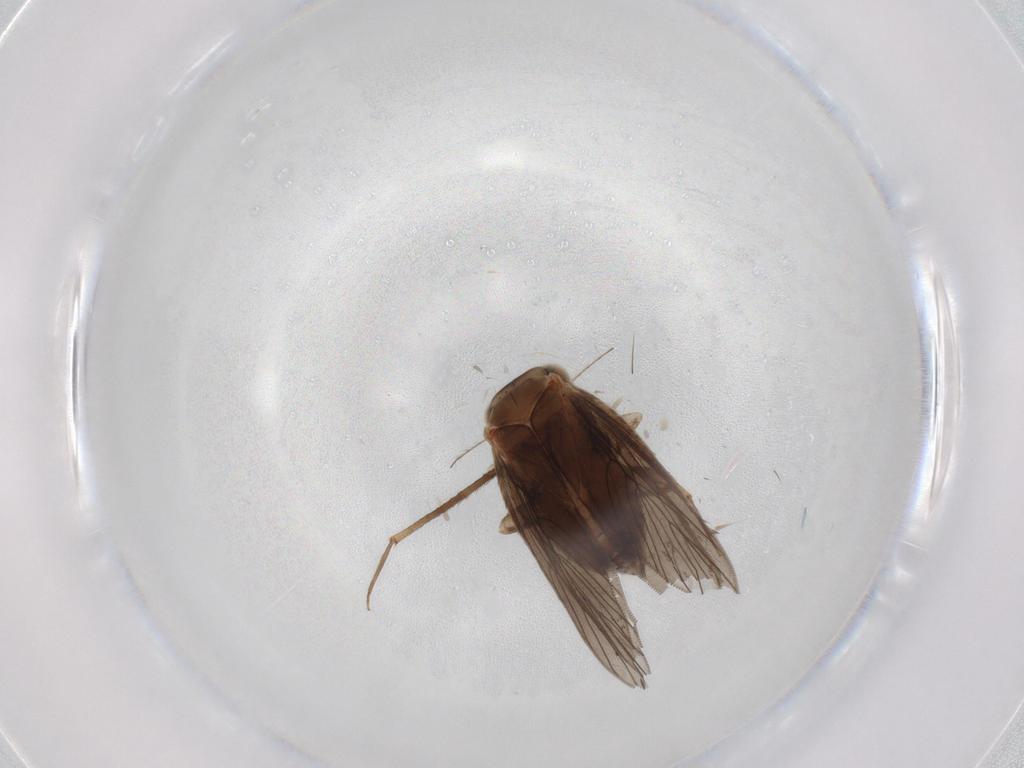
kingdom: Animalia
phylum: Arthropoda
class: Insecta
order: Psocodea
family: Lepidopsocidae
